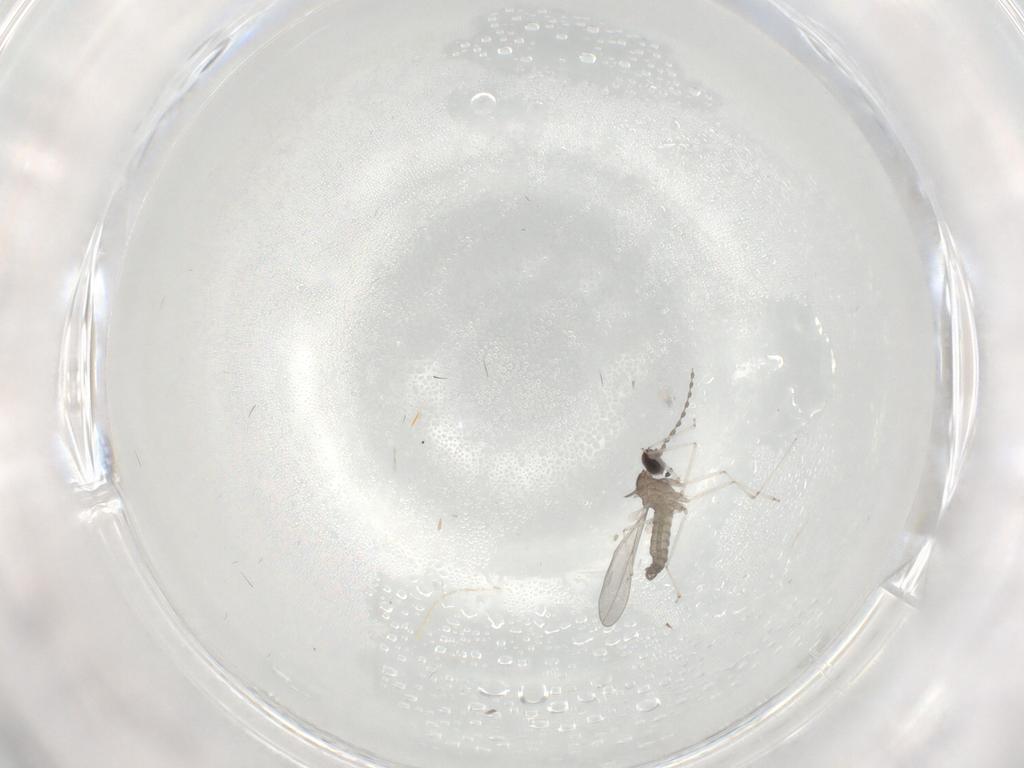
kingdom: Animalia
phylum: Arthropoda
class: Insecta
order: Diptera
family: Cecidomyiidae
